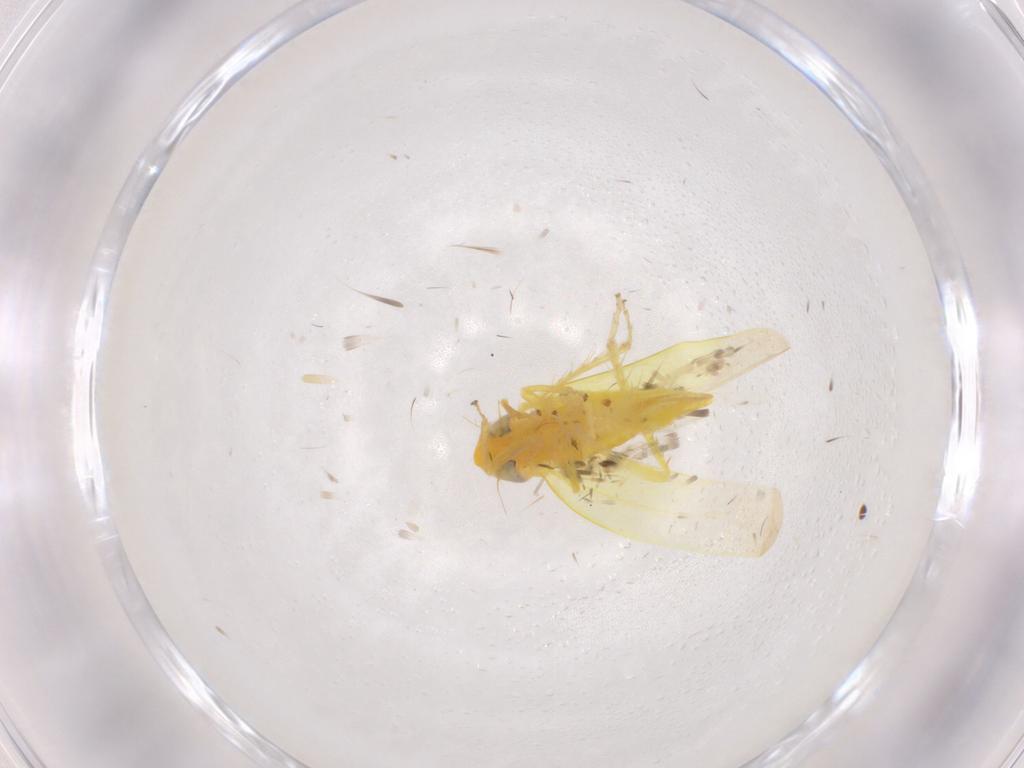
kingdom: Animalia
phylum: Arthropoda
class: Insecta
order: Hemiptera
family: Cicadellidae
